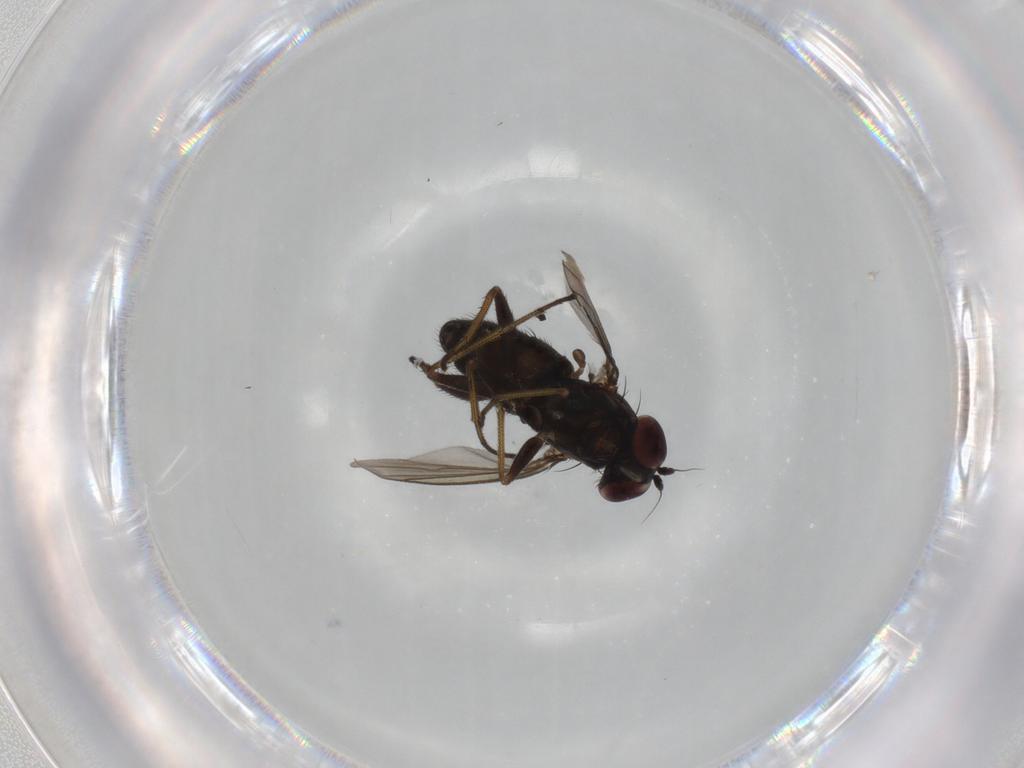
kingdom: Animalia
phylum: Arthropoda
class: Insecta
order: Diptera
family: Dolichopodidae
